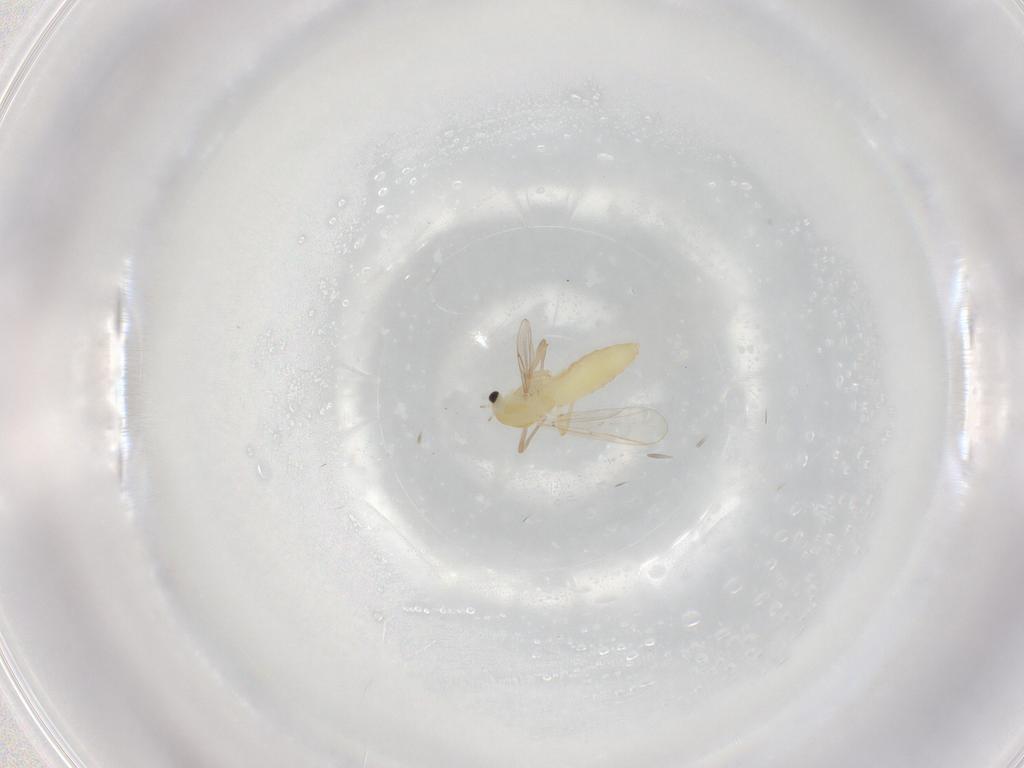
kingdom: Animalia
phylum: Arthropoda
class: Insecta
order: Diptera
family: Chironomidae
